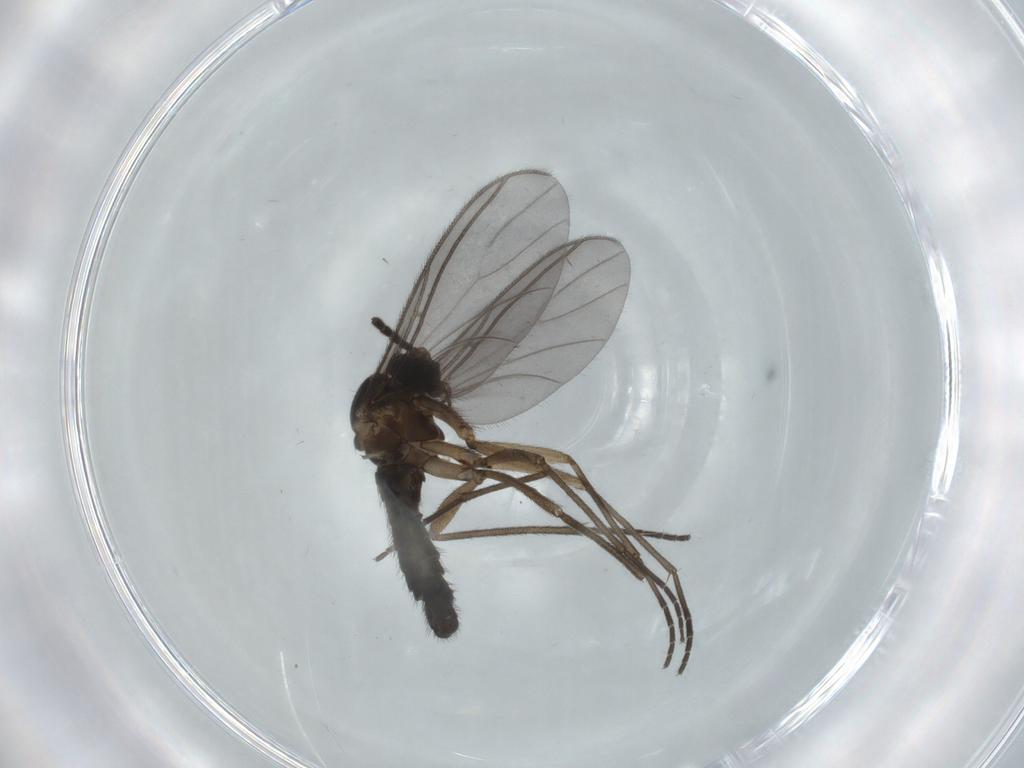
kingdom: Animalia
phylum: Arthropoda
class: Insecta
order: Diptera
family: Sciaridae
